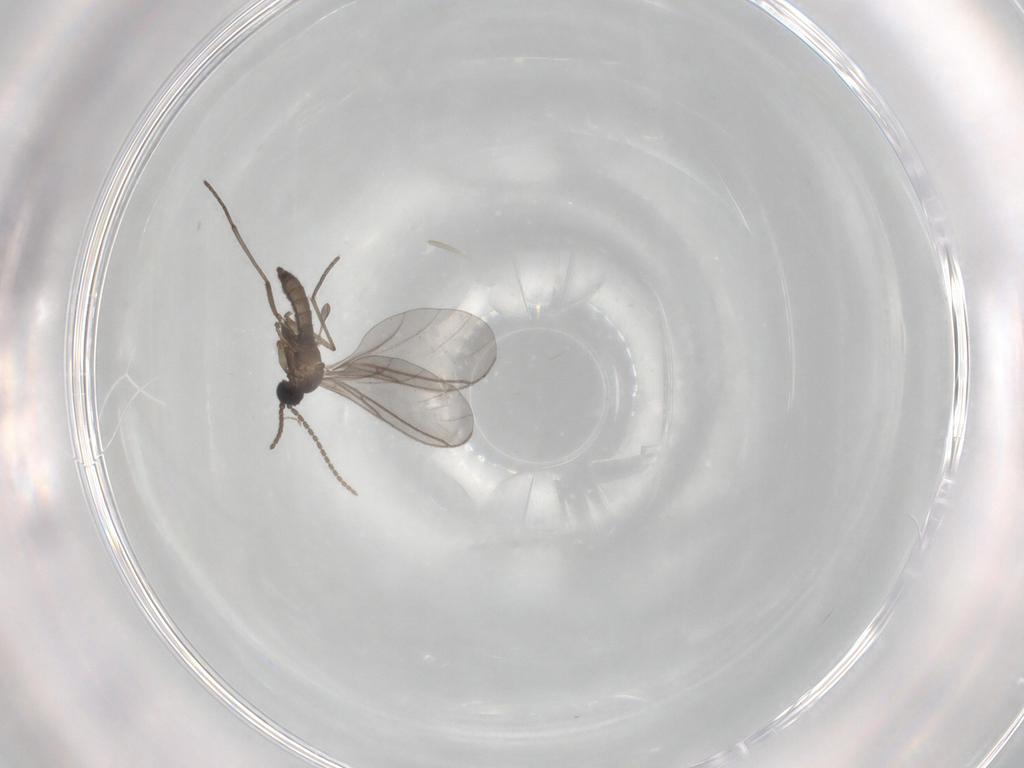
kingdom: Animalia
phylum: Arthropoda
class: Insecta
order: Diptera
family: Sciaridae
